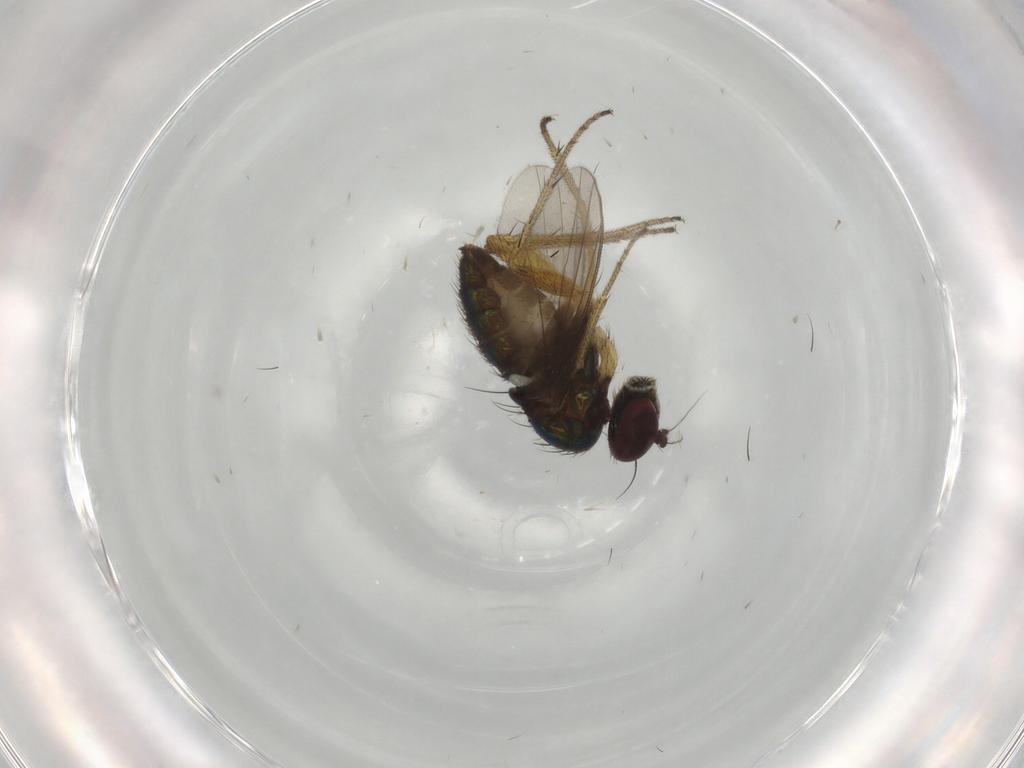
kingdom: Animalia
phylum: Arthropoda
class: Insecta
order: Diptera
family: Dolichopodidae
